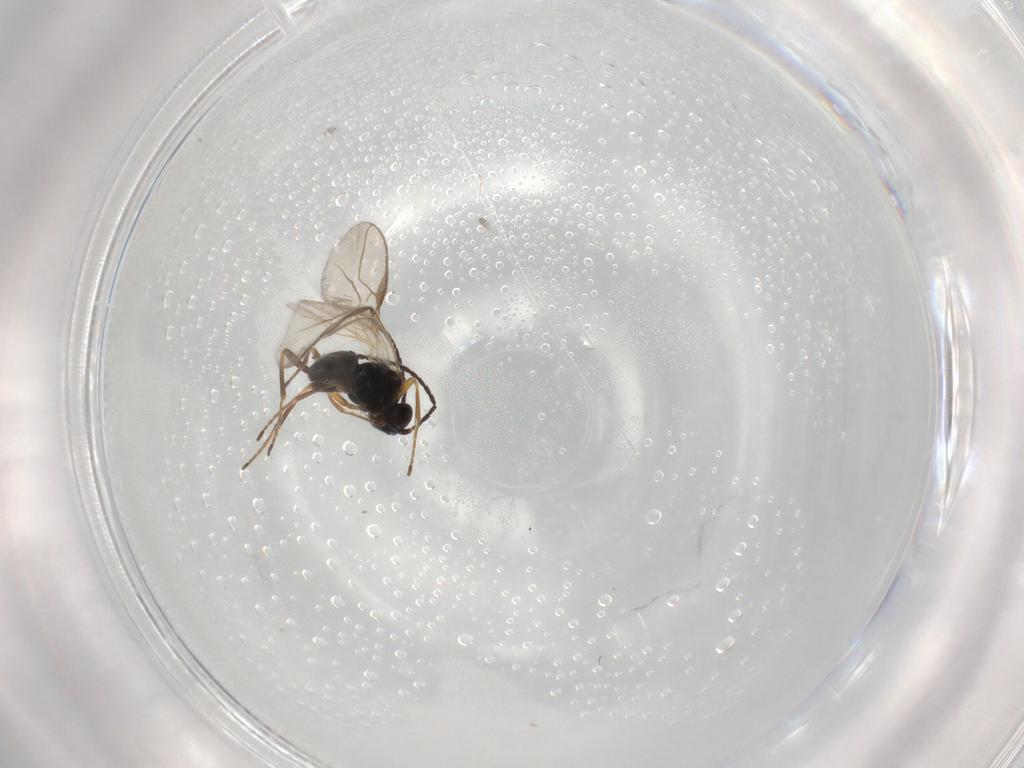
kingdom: Animalia
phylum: Arthropoda
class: Insecta
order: Hymenoptera
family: Braconidae
